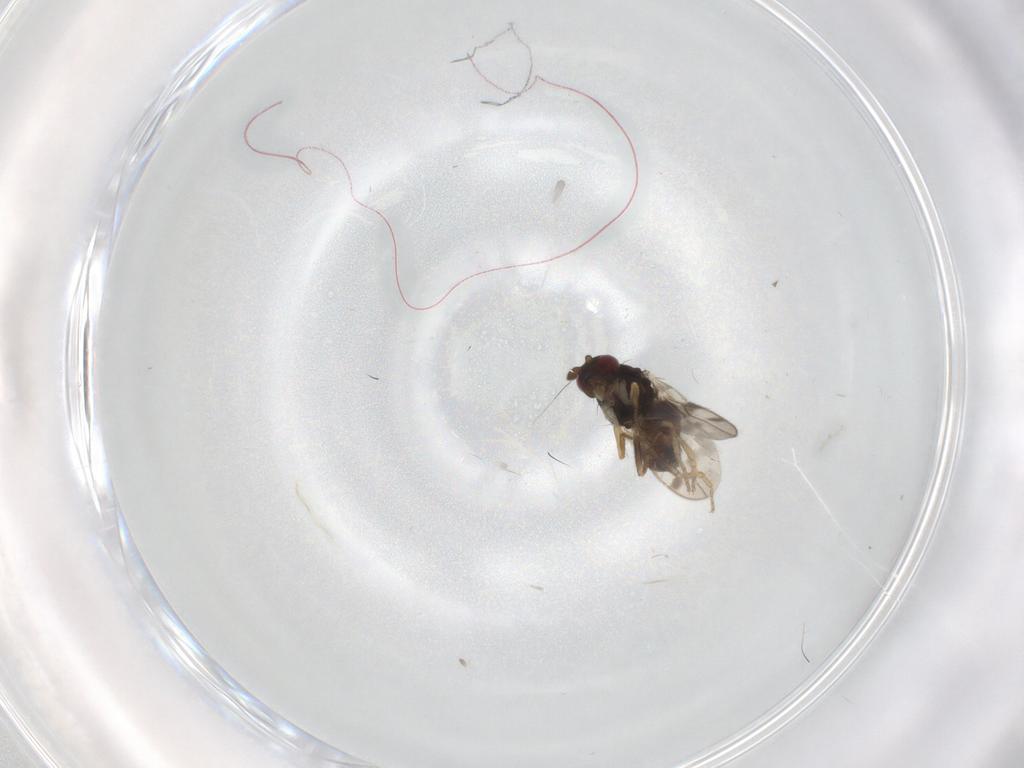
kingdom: Animalia
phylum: Arthropoda
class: Insecta
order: Diptera
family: Sphaeroceridae
